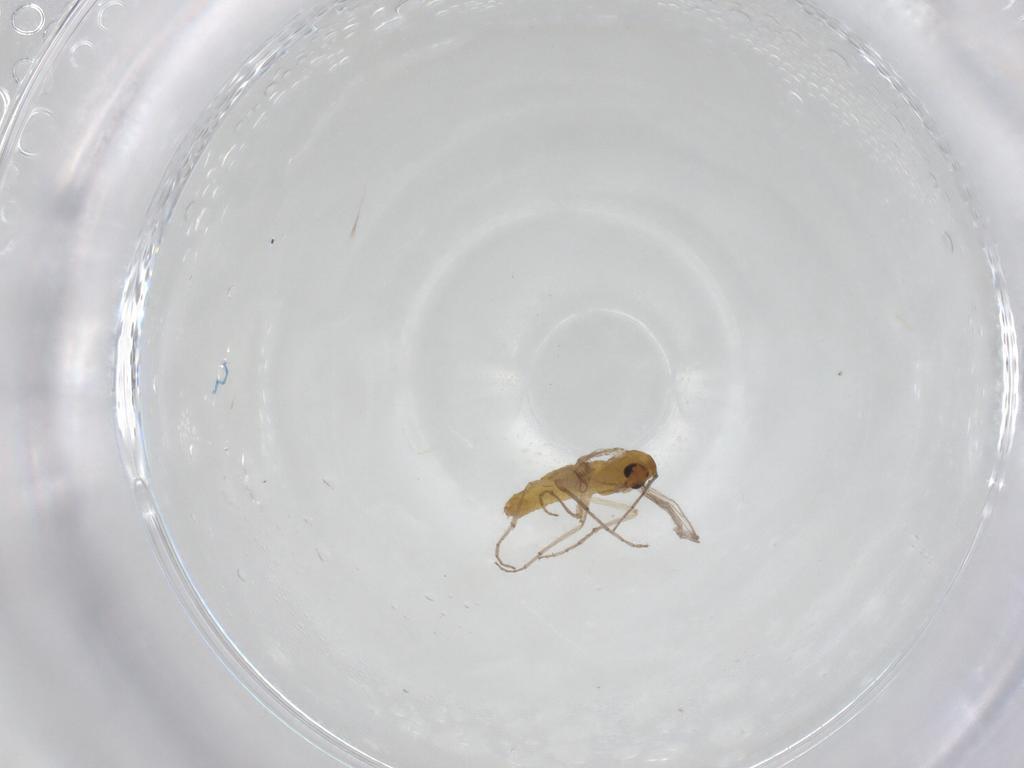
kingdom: Animalia
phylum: Arthropoda
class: Insecta
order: Diptera
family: Chironomidae
